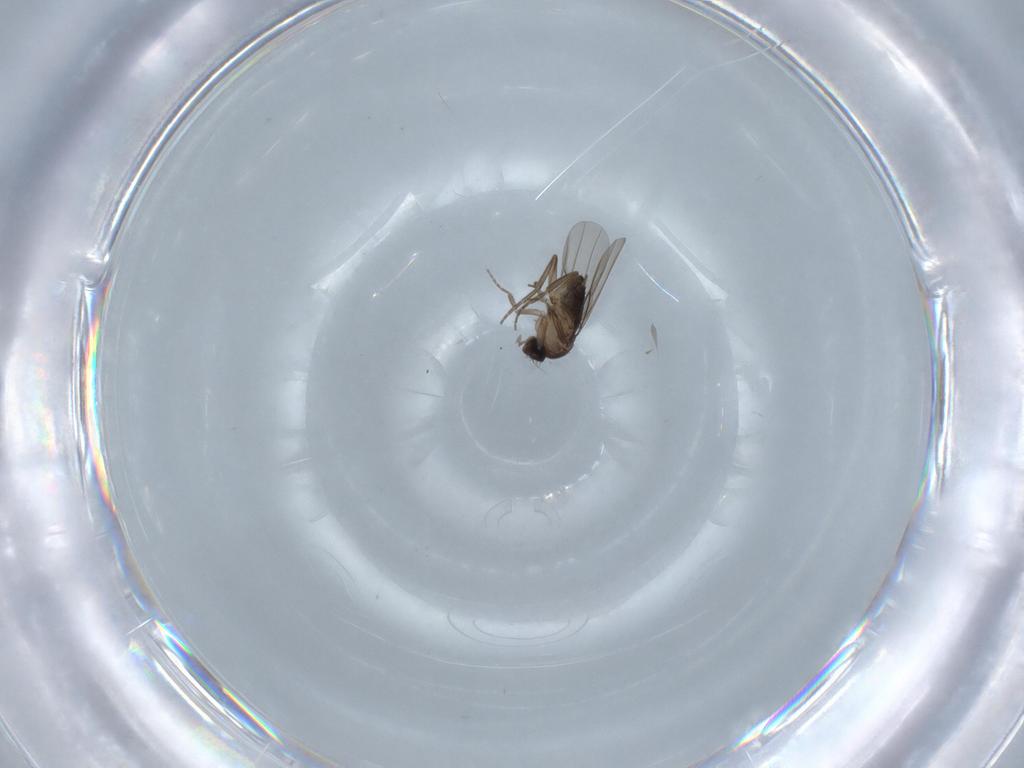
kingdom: Animalia
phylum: Arthropoda
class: Insecta
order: Diptera
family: Phoridae
